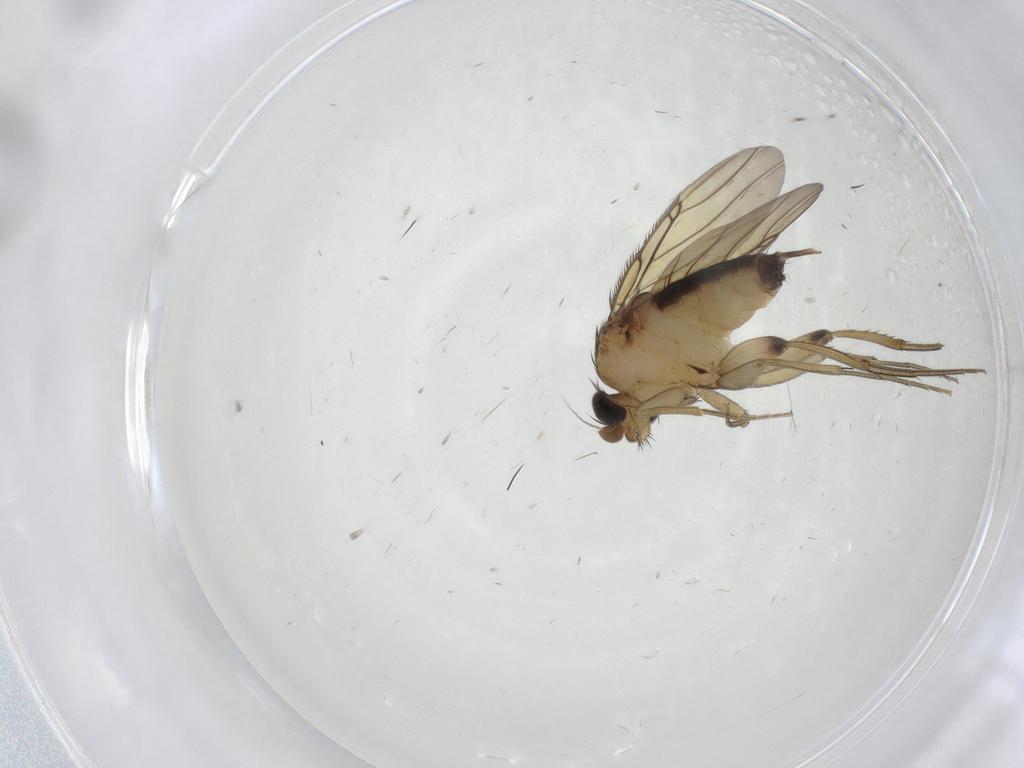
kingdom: Animalia
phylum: Arthropoda
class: Insecta
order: Diptera
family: Phoridae
